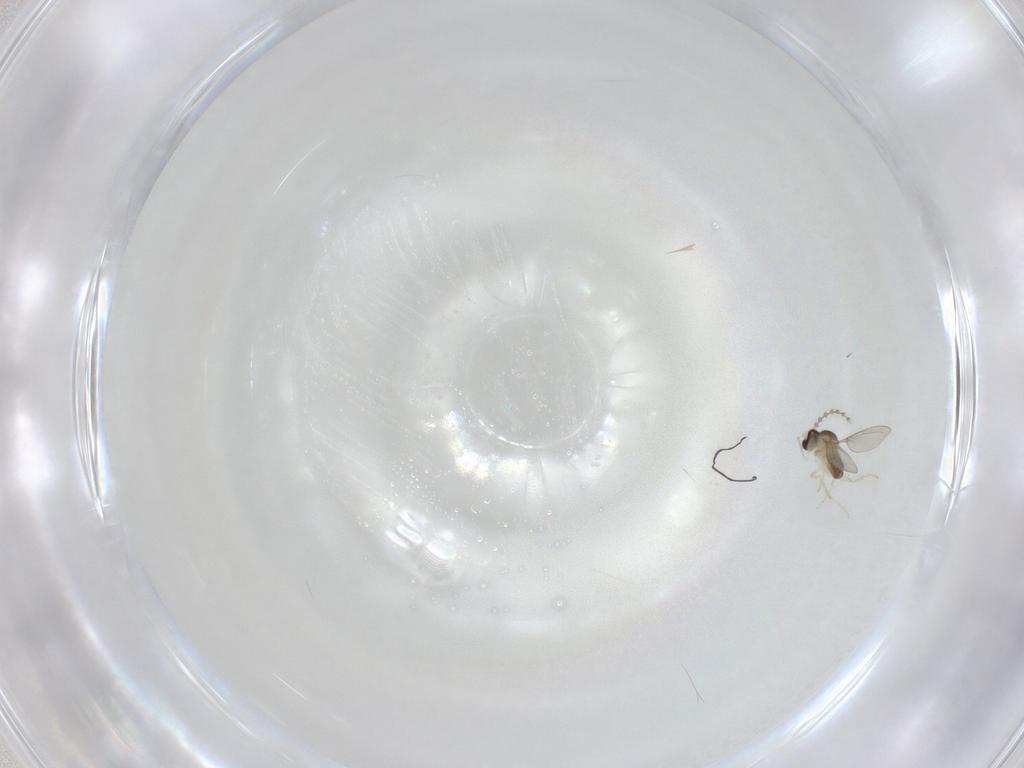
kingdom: Animalia
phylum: Arthropoda
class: Insecta
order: Diptera
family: Cecidomyiidae
